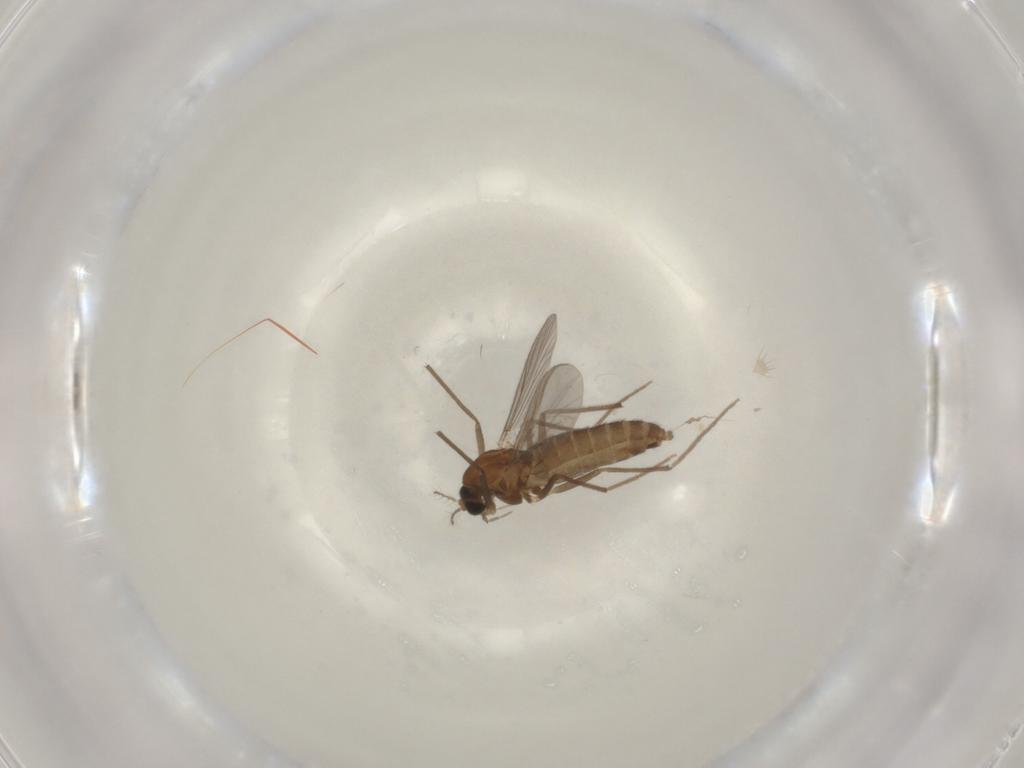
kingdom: Animalia
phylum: Arthropoda
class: Insecta
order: Diptera
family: Chironomidae
